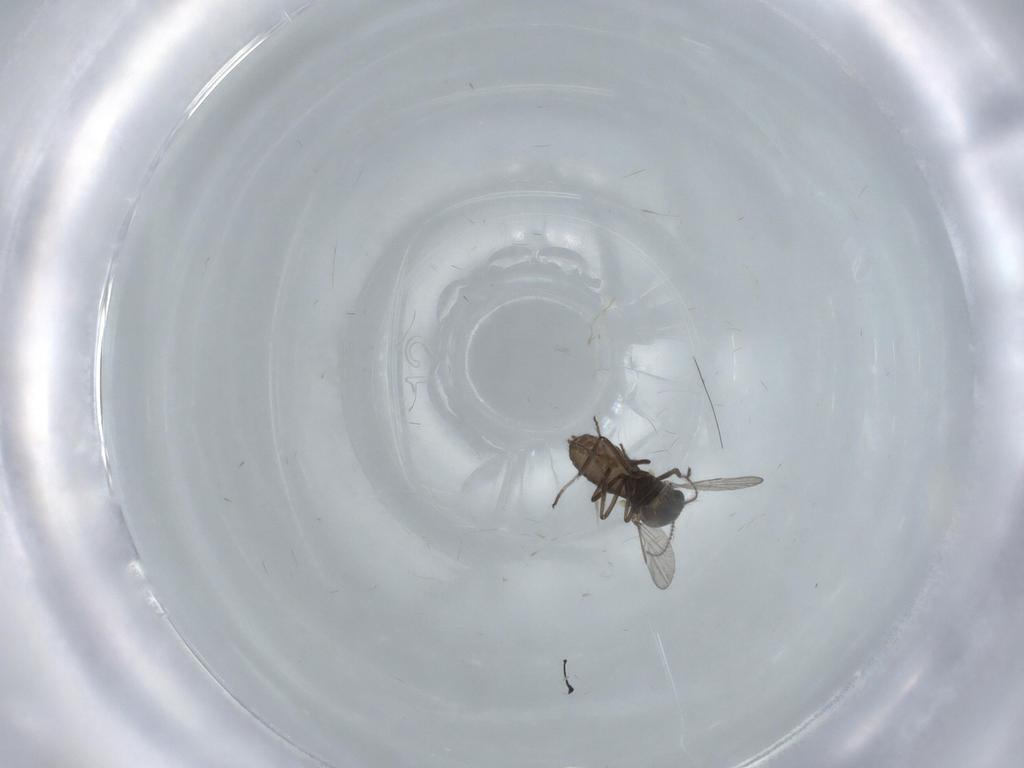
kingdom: Animalia
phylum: Arthropoda
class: Insecta
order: Diptera
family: Ceratopogonidae
